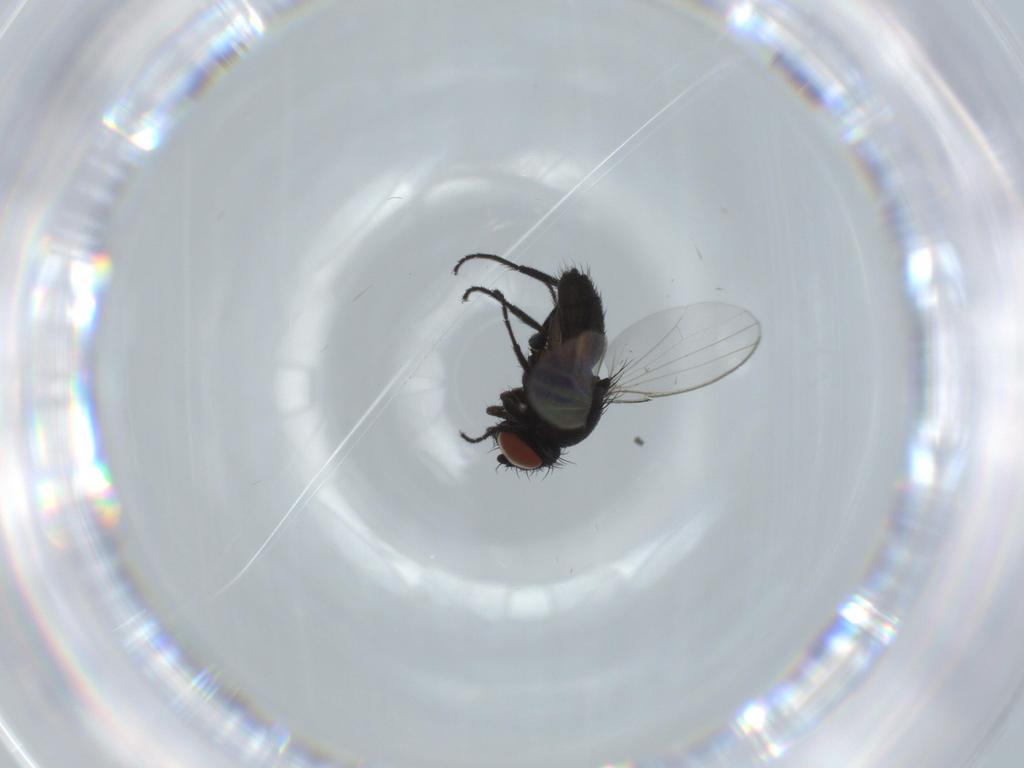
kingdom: Animalia
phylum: Arthropoda
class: Insecta
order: Diptera
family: Milichiidae
